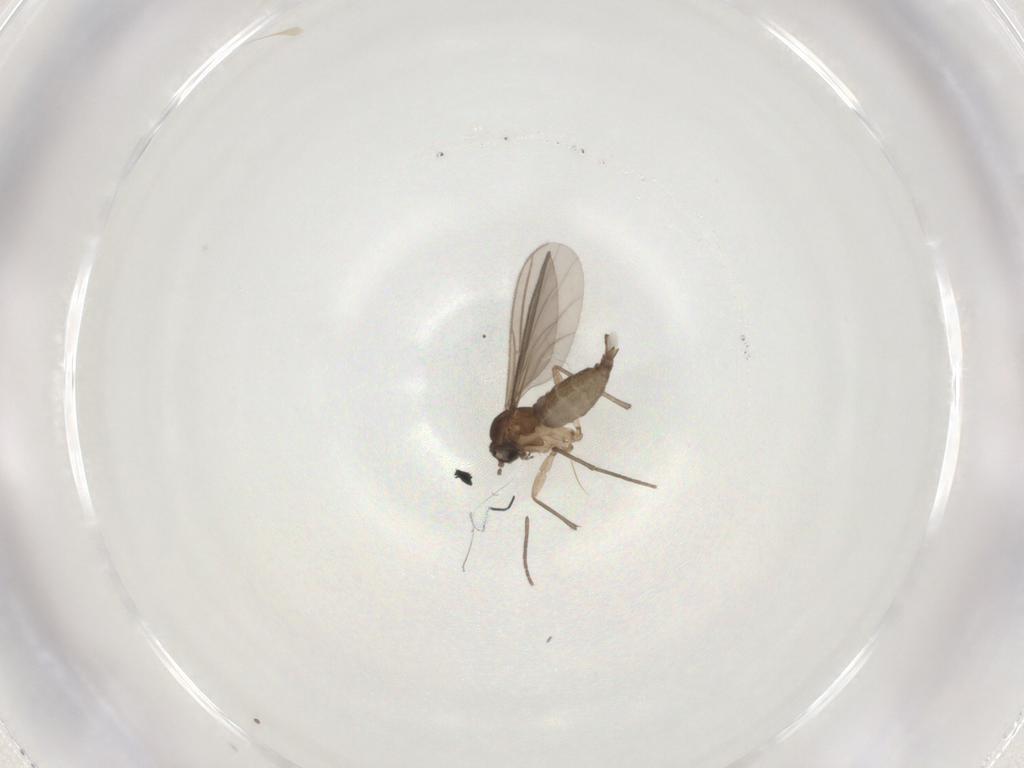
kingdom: Animalia
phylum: Arthropoda
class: Insecta
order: Diptera
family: Sciaridae
